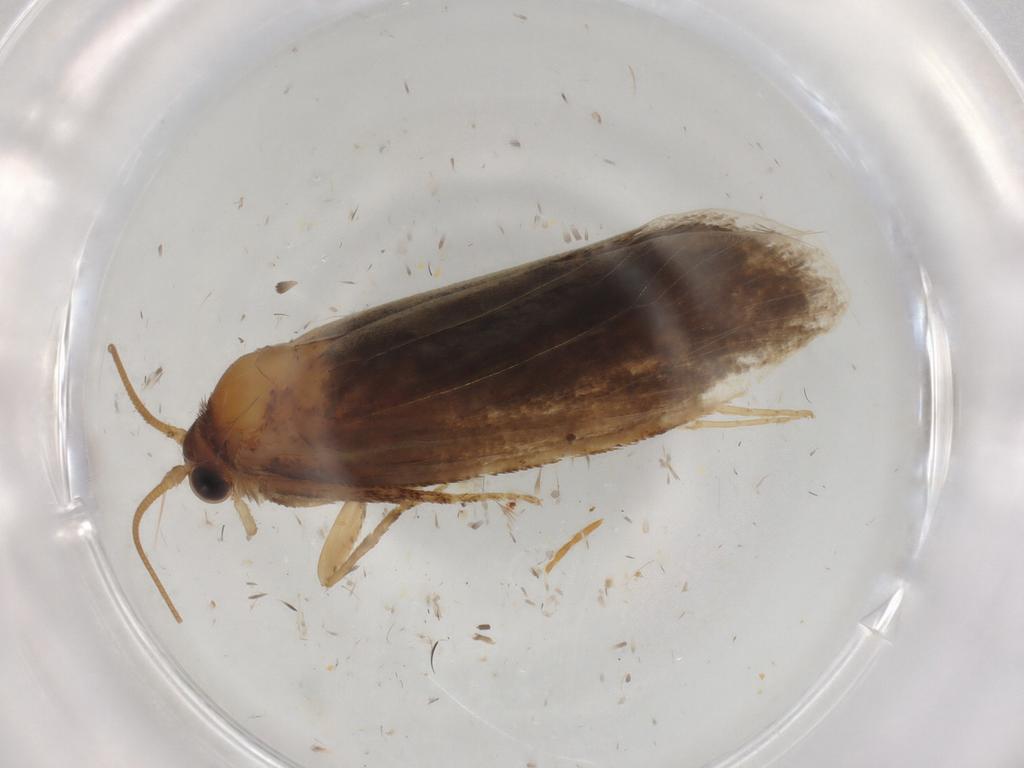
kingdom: Animalia
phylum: Arthropoda
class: Insecta
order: Lepidoptera
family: Nepticulidae
